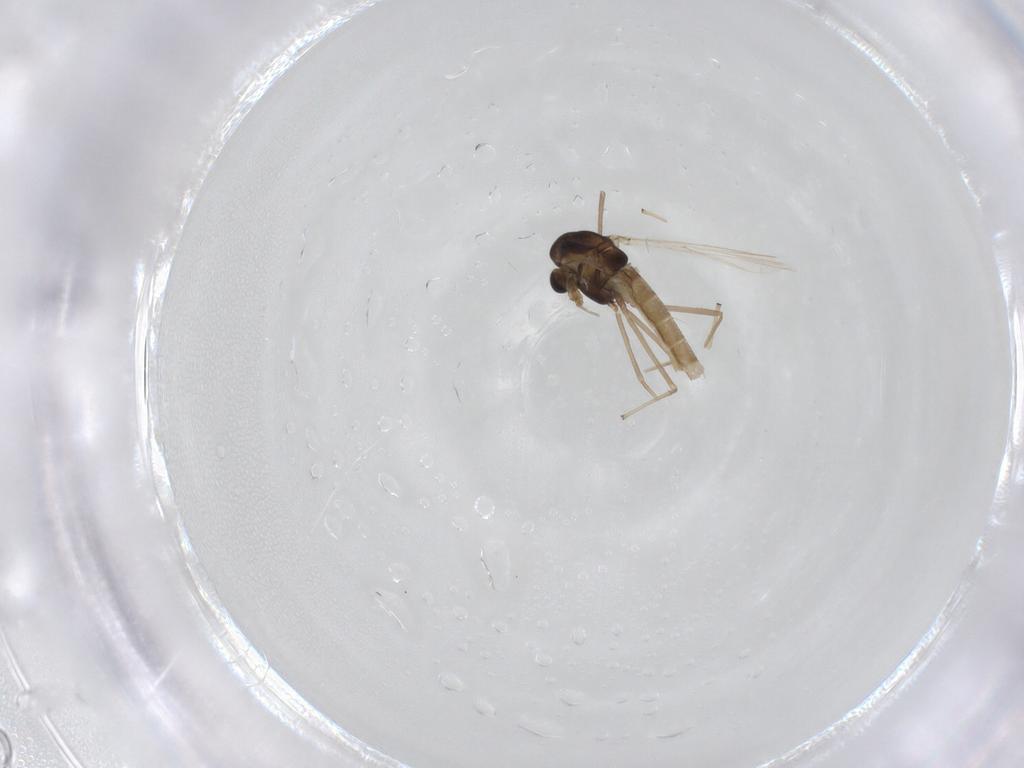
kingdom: Animalia
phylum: Arthropoda
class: Insecta
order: Diptera
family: Chironomidae
